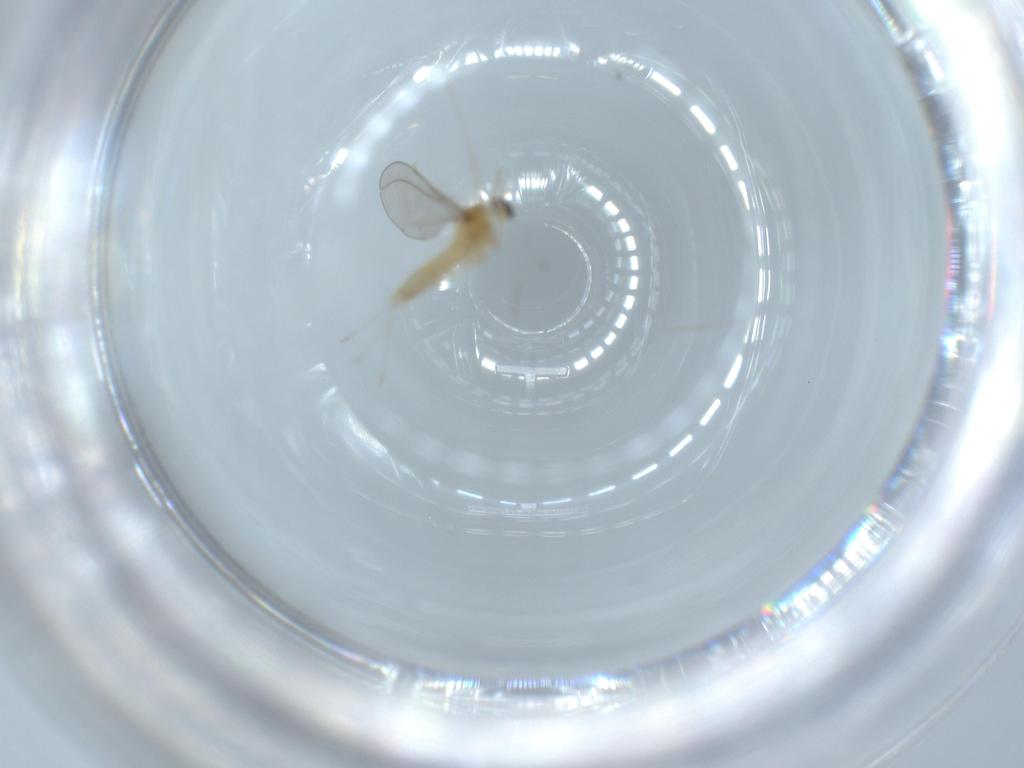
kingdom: Animalia
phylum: Arthropoda
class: Insecta
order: Diptera
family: Cecidomyiidae
